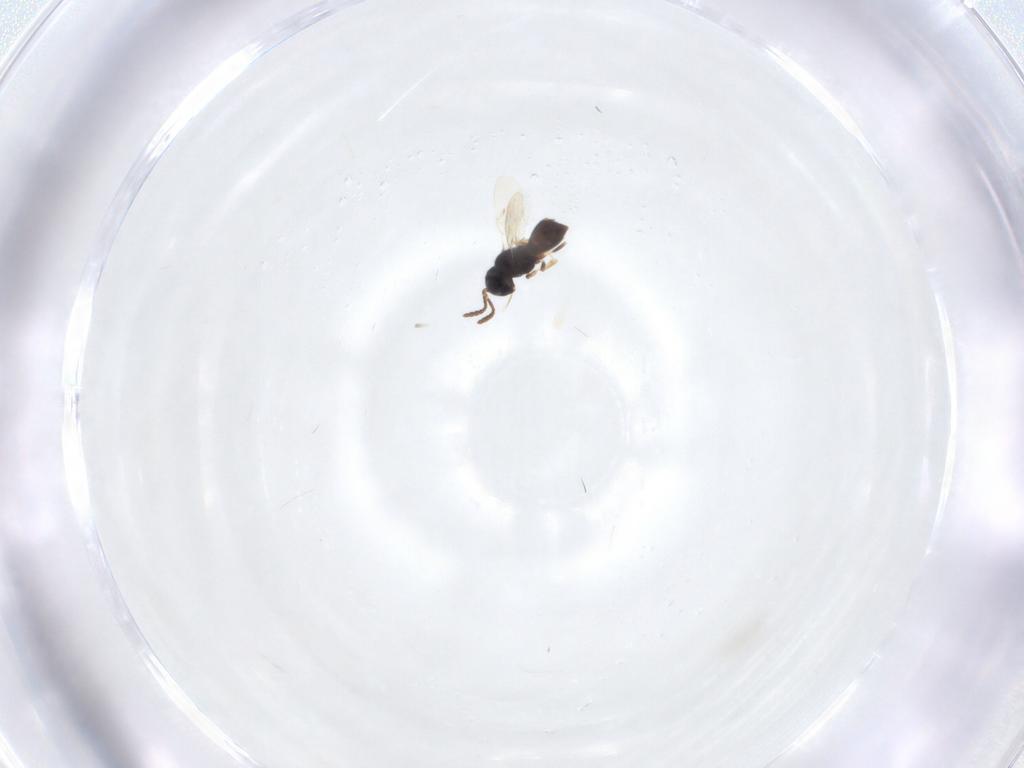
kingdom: Animalia
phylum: Arthropoda
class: Insecta
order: Hymenoptera
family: Scelionidae
